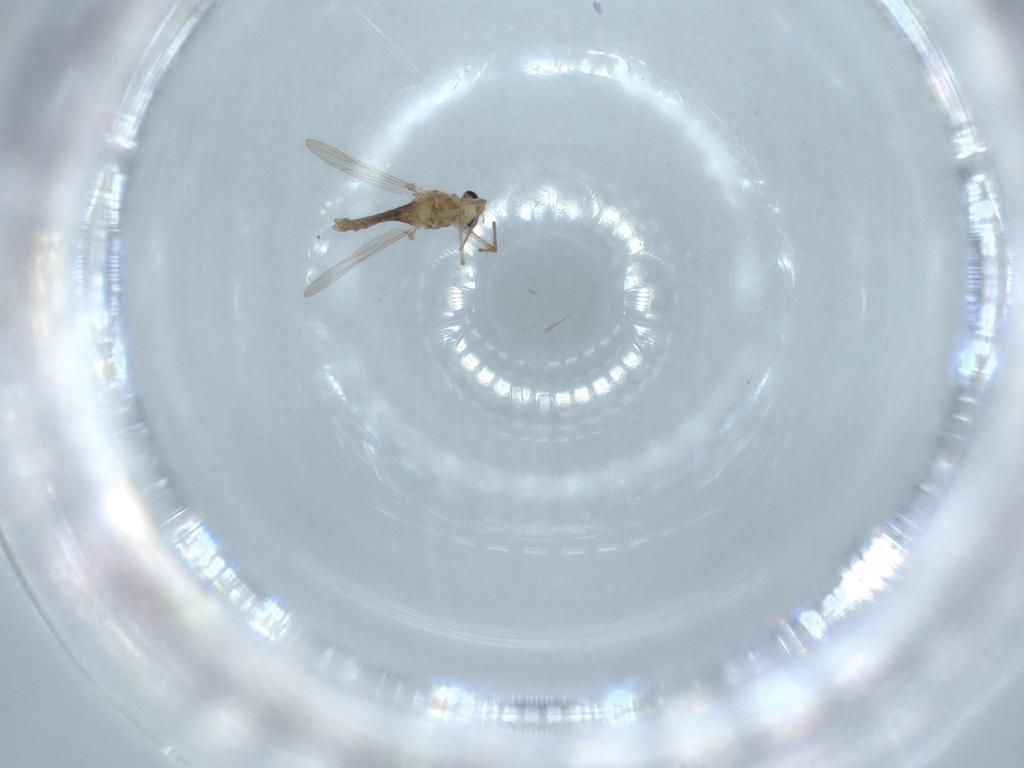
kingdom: Animalia
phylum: Arthropoda
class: Insecta
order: Diptera
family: Chironomidae
